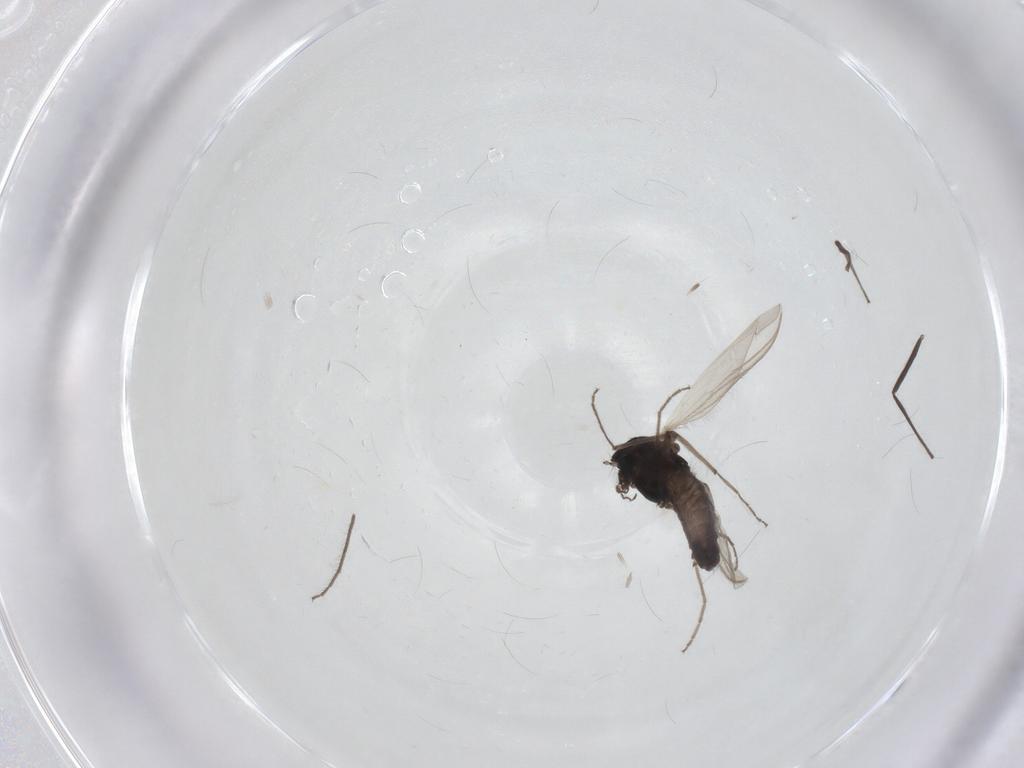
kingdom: Animalia
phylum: Arthropoda
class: Insecta
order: Diptera
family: Chironomidae
